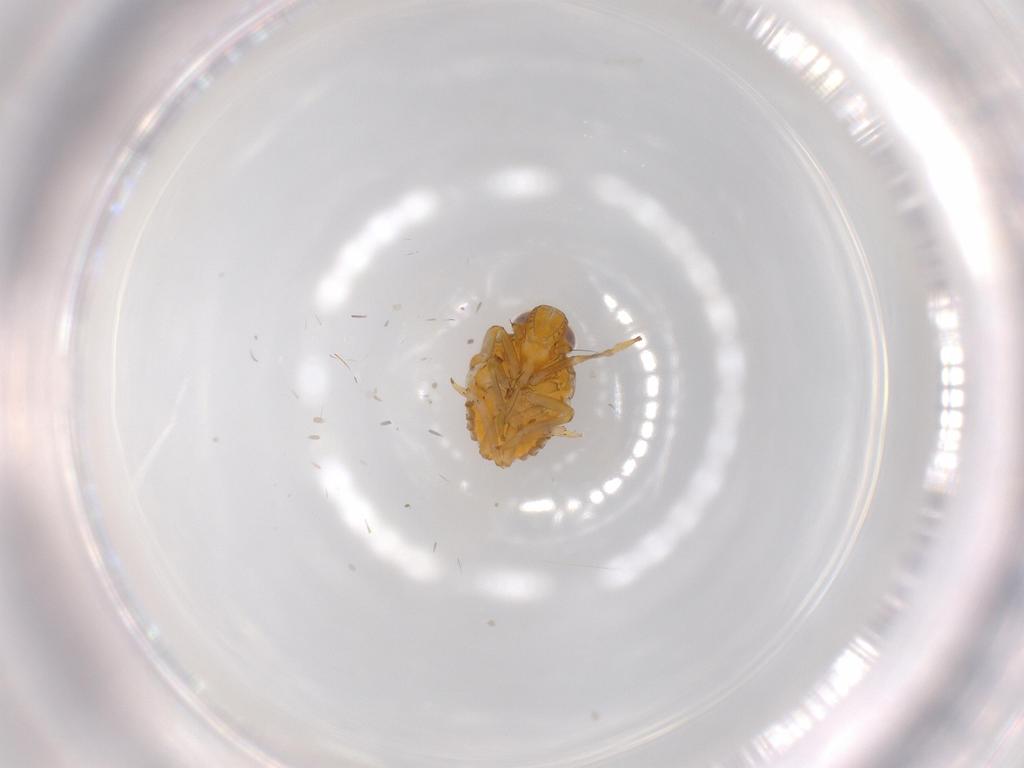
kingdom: Animalia
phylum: Arthropoda
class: Insecta
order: Hemiptera
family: Issidae
